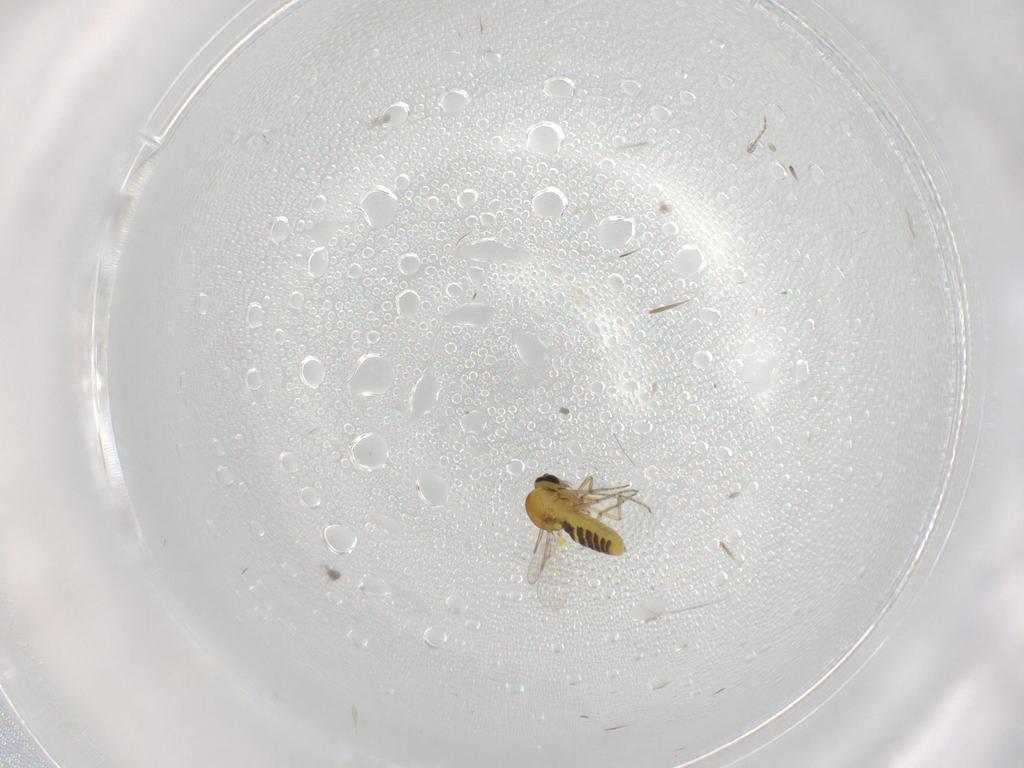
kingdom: Animalia
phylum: Arthropoda
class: Insecta
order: Diptera
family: Ceratopogonidae
